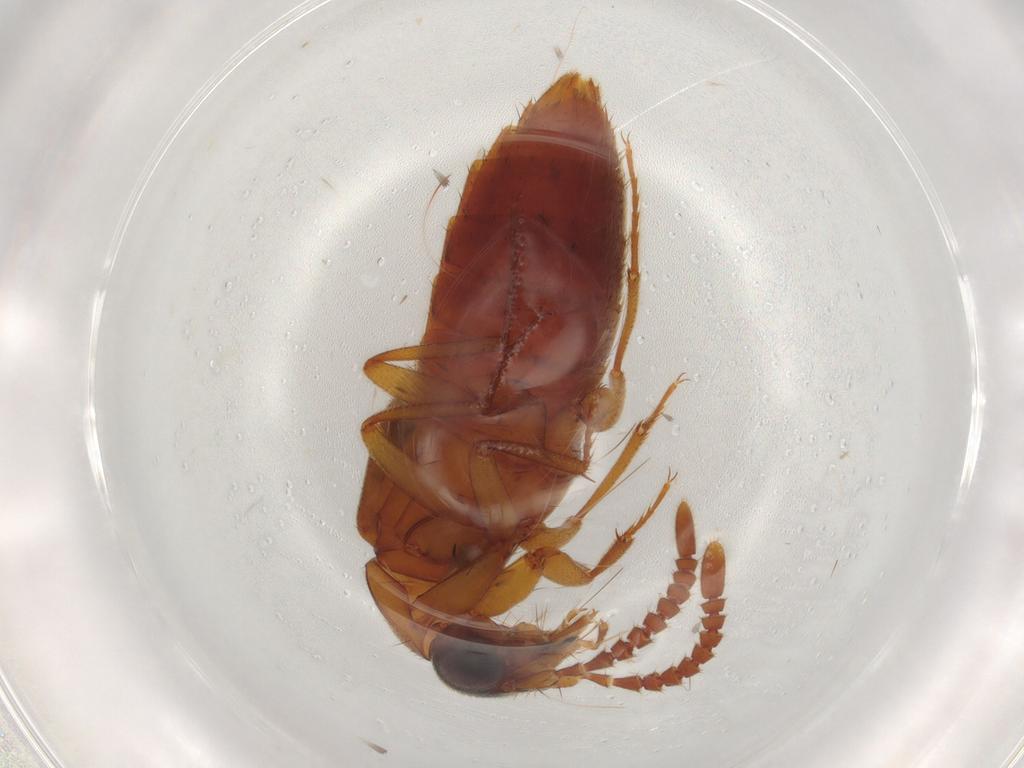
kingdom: Animalia
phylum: Arthropoda
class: Insecta
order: Coleoptera
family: Staphylinidae
